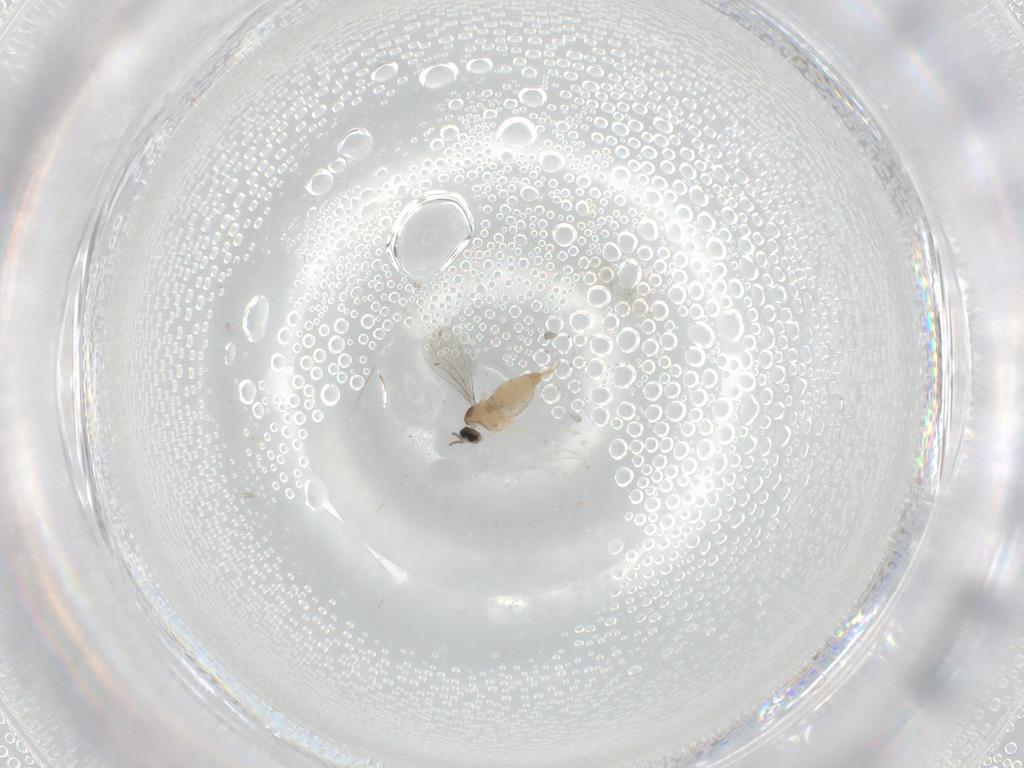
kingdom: Animalia
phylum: Arthropoda
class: Insecta
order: Diptera
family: Cecidomyiidae
